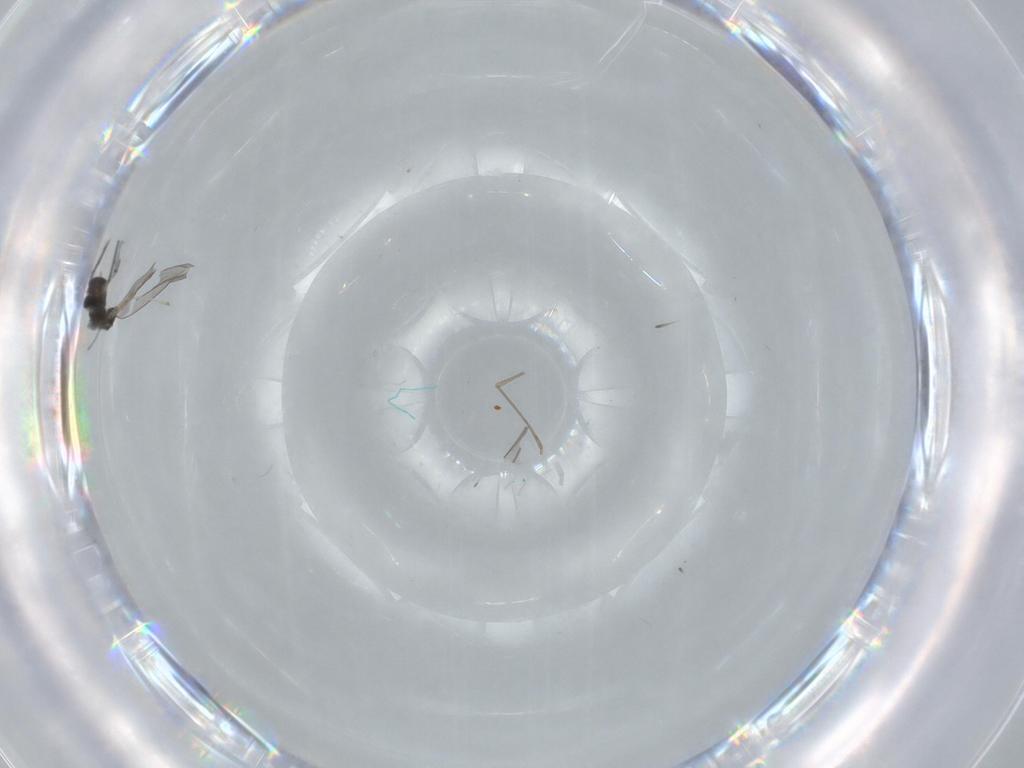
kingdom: Animalia
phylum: Arthropoda
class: Insecta
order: Diptera
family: Cecidomyiidae
